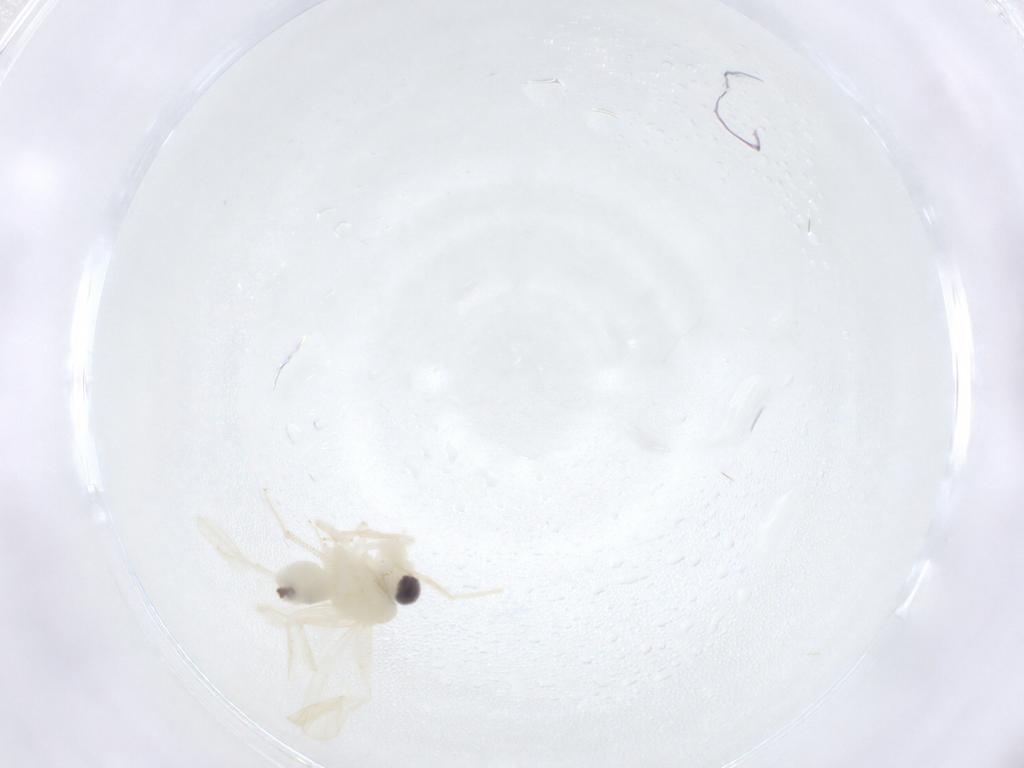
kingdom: Animalia
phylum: Arthropoda
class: Insecta
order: Psocodea
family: Caeciliusidae
